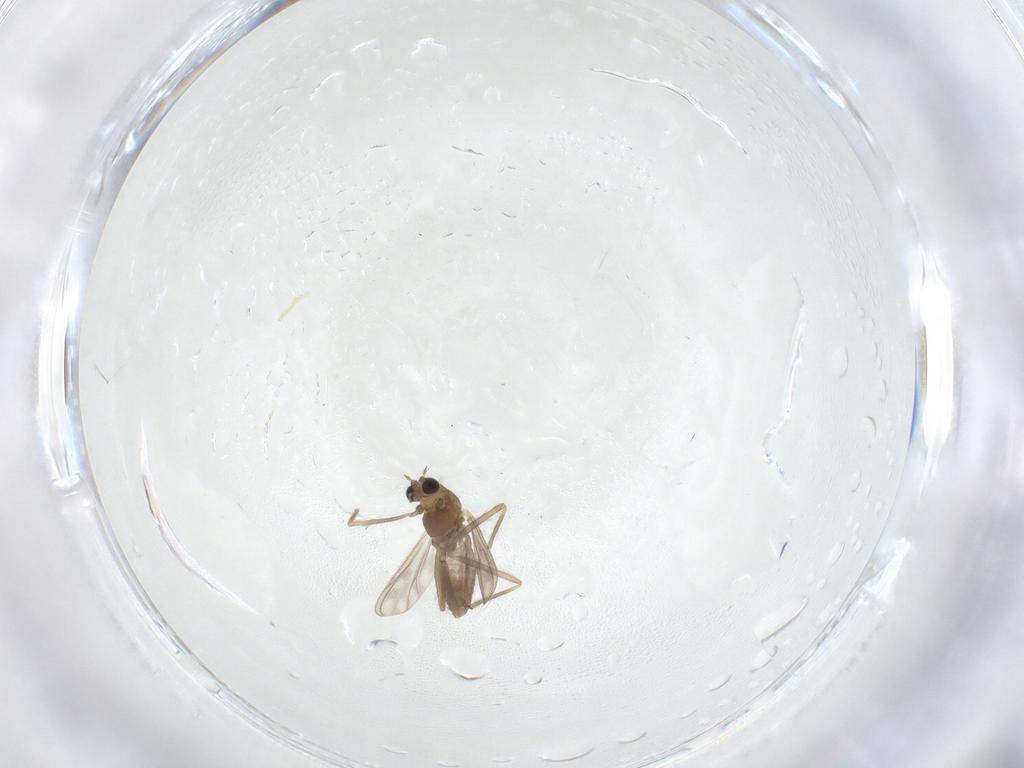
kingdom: Animalia
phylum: Arthropoda
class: Insecta
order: Diptera
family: Chironomidae
